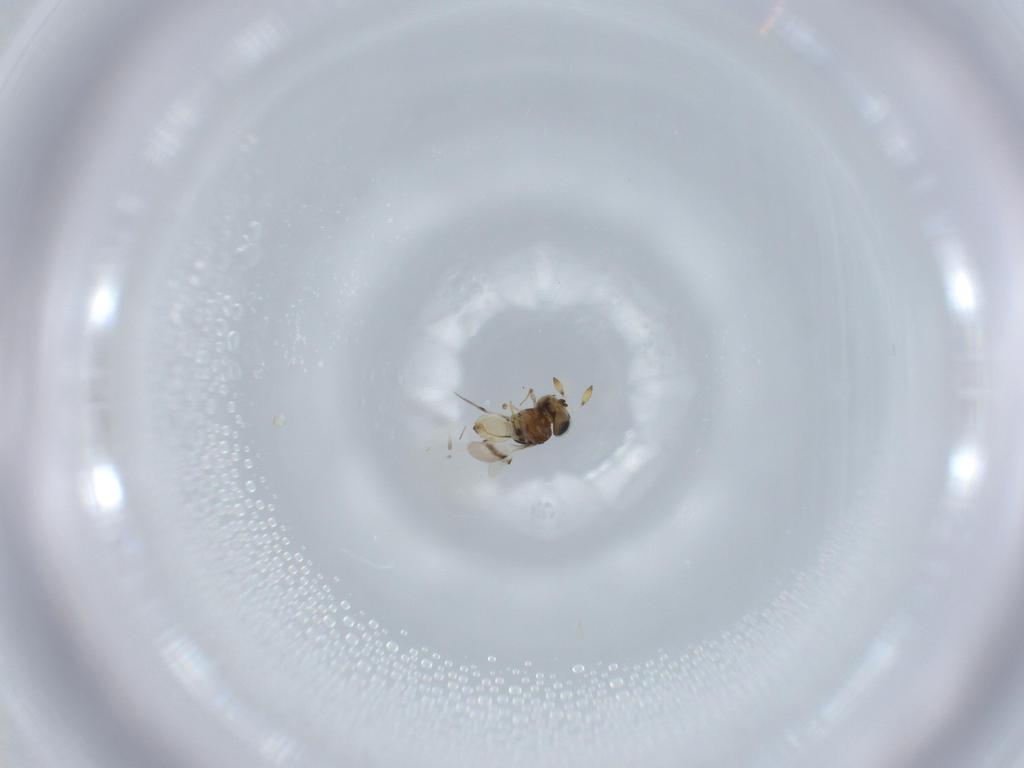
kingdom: Animalia
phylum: Arthropoda
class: Insecta
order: Hymenoptera
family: Scelionidae
